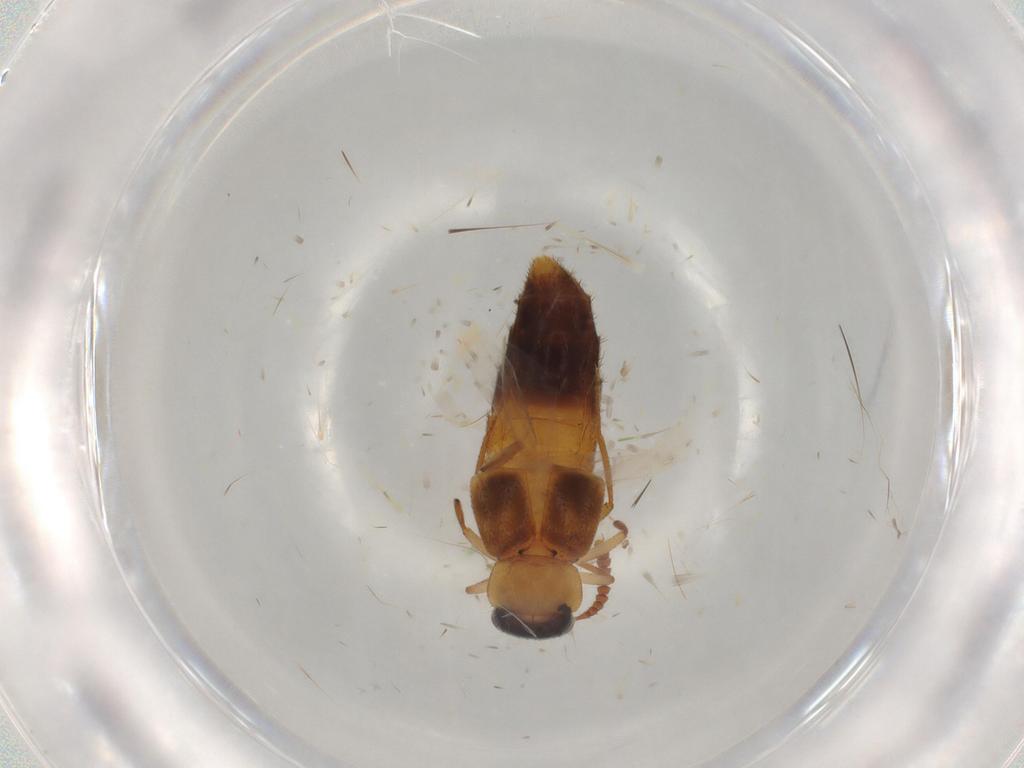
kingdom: Animalia
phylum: Arthropoda
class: Insecta
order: Coleoptera
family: Staphylinidae
